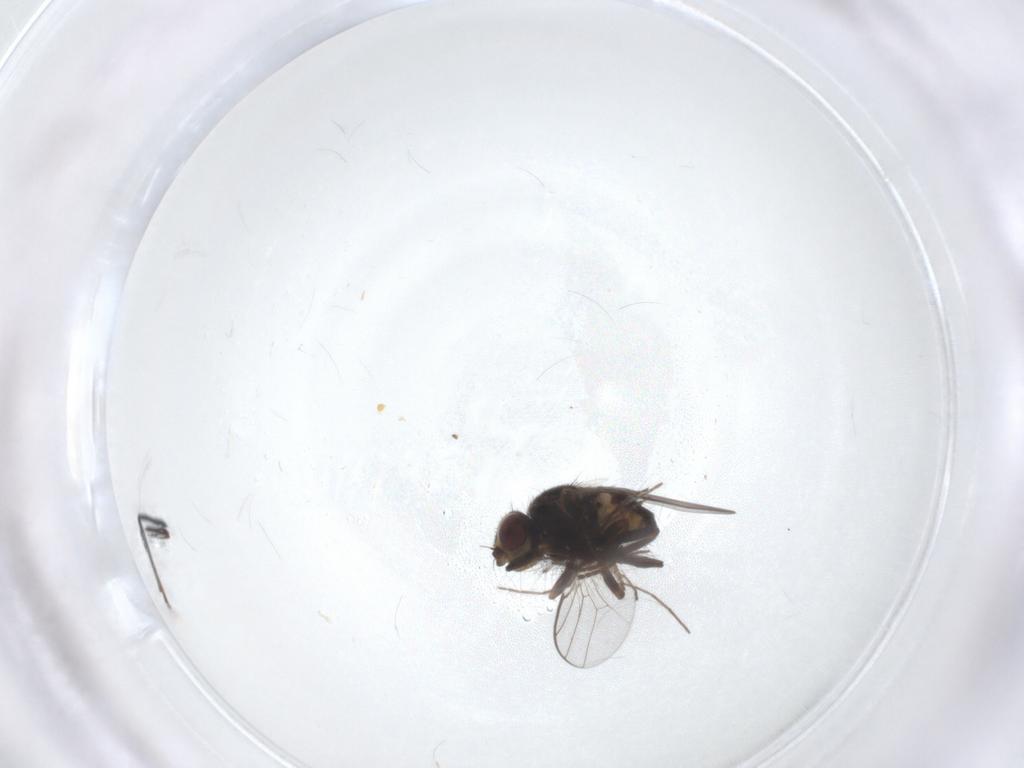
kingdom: Animalia
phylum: Arthropoda
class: Insecta
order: Diptera
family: Chloropidae
